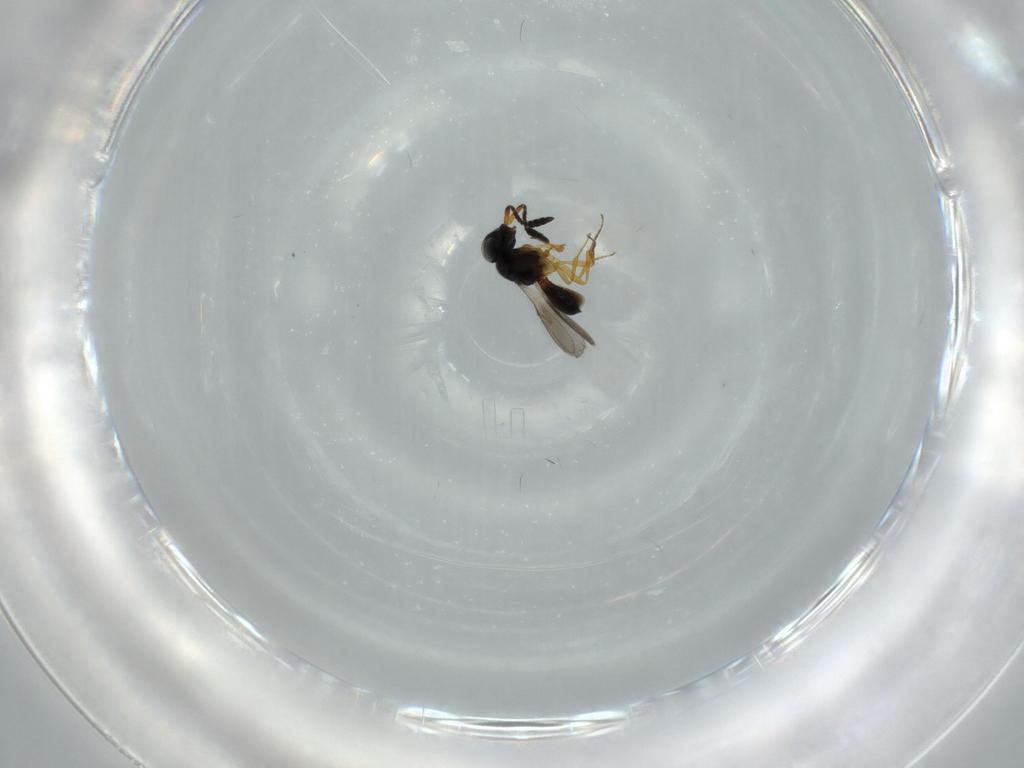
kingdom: Animalia
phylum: Arthropoda
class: Insecta
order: Hymenoptera
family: Scelionidae
